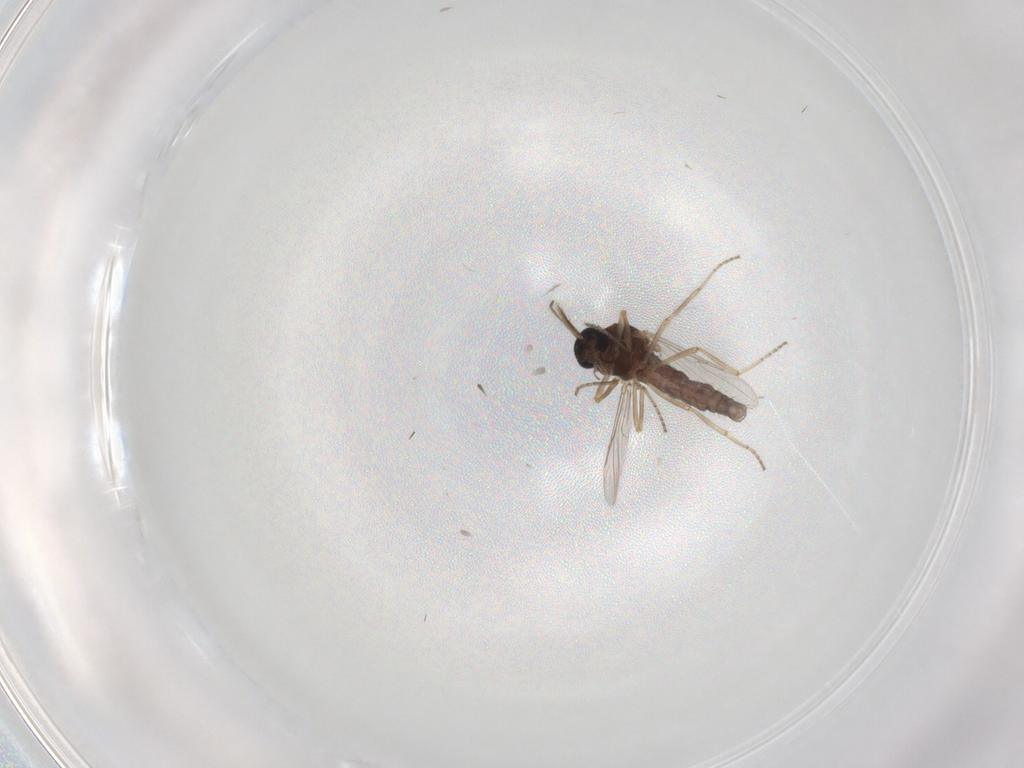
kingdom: Animalia
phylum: Arthropoda
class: Insecta
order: Diptera
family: Ceratopogonidae
